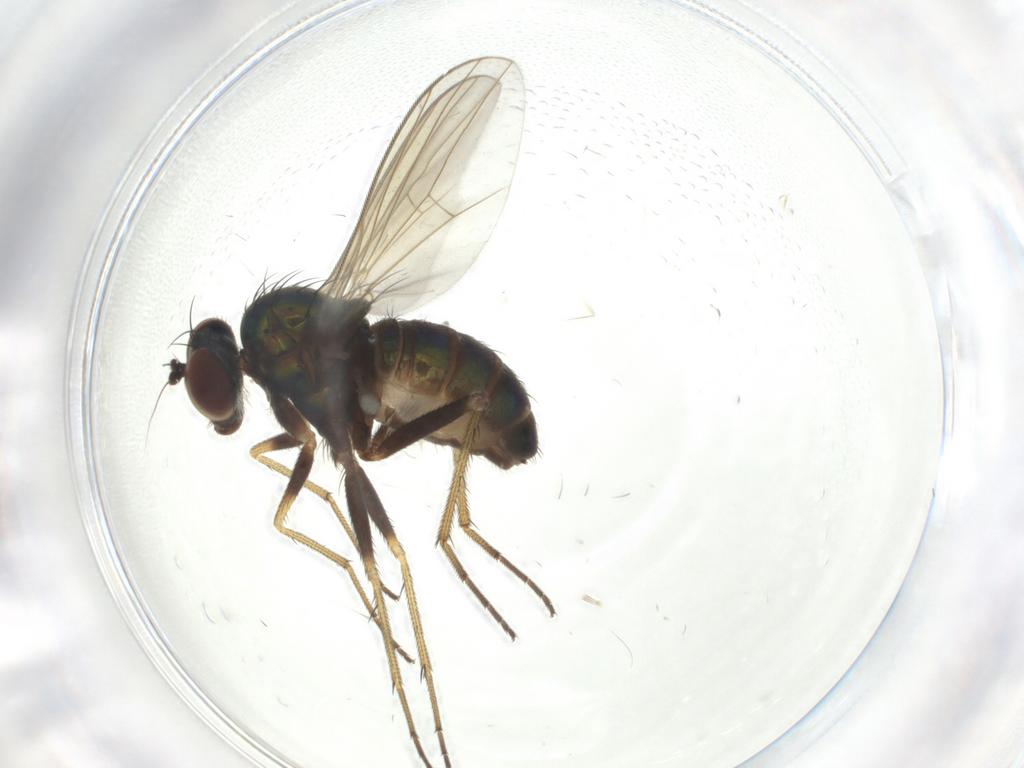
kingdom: Animalia
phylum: Arthropoda
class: Insecta
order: Diptera
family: Dolichopodidae
